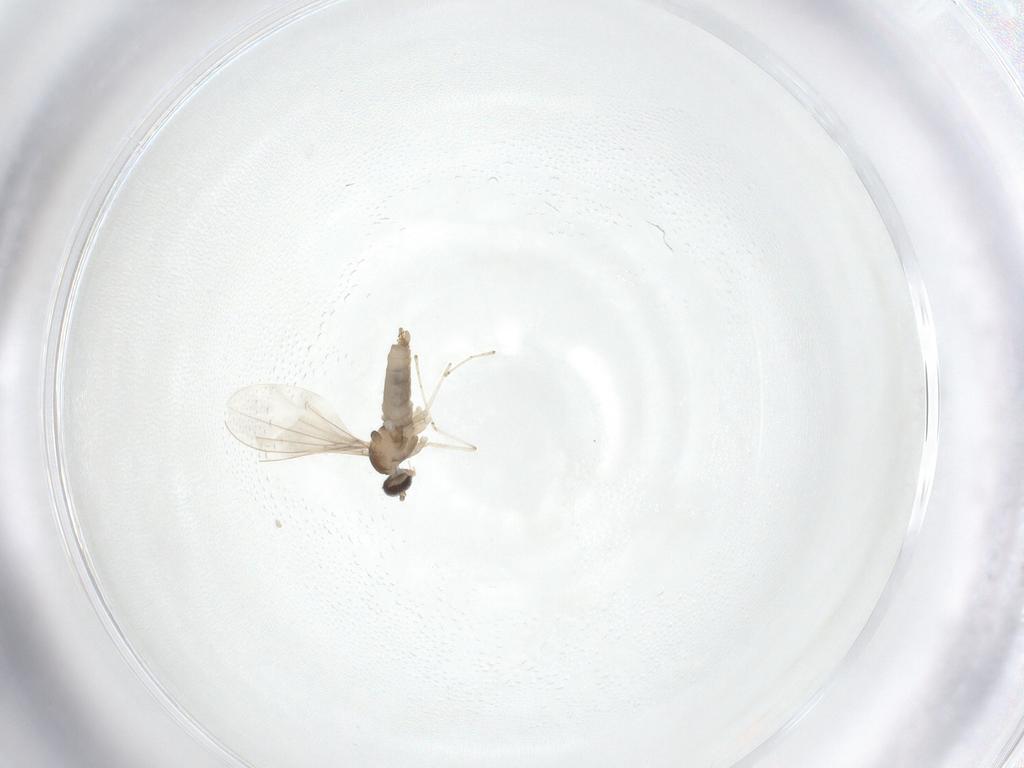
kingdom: Animalia
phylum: Arthropoda
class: Insecta
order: Diptera
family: Cecidomyiidae
